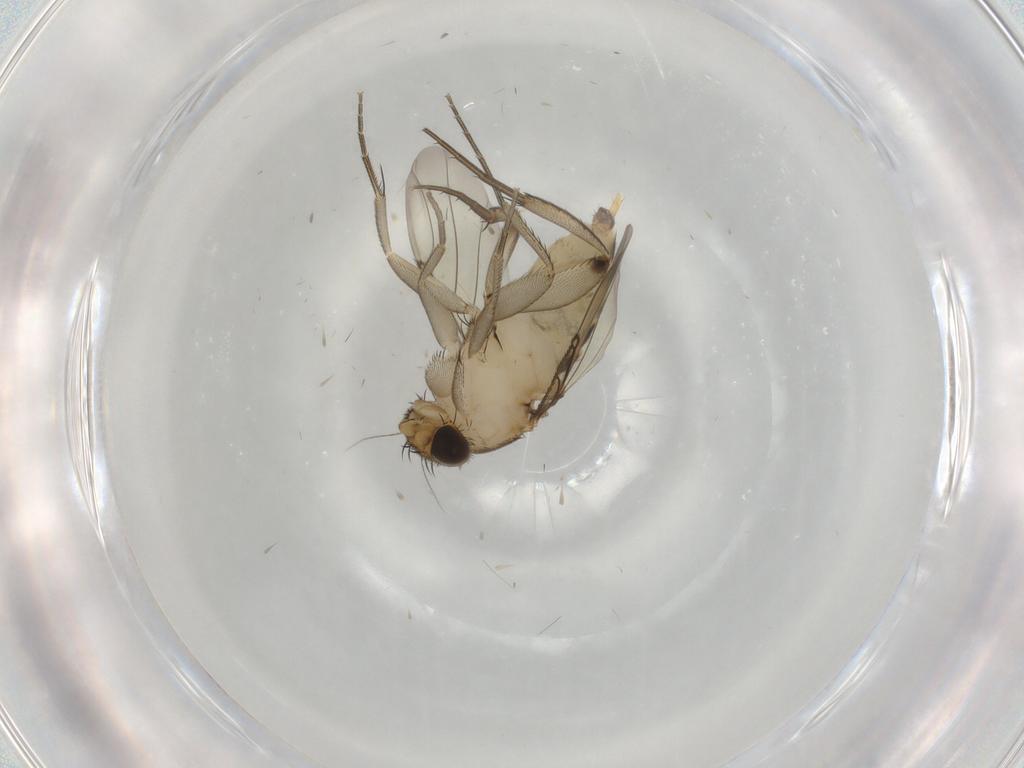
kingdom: Animalia
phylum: Arthropoda
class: Insecta
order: Diptera
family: Phoridae
